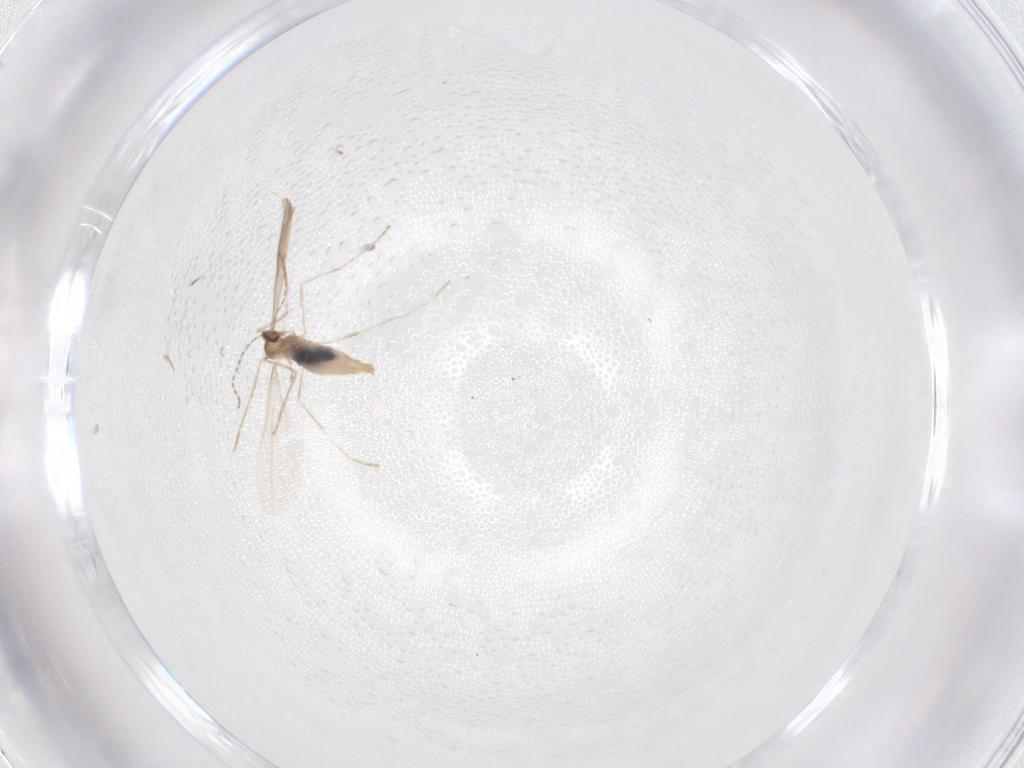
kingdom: Animalia
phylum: Arthropoda
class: Insecta
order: Diptera
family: Cecidomyiidae
